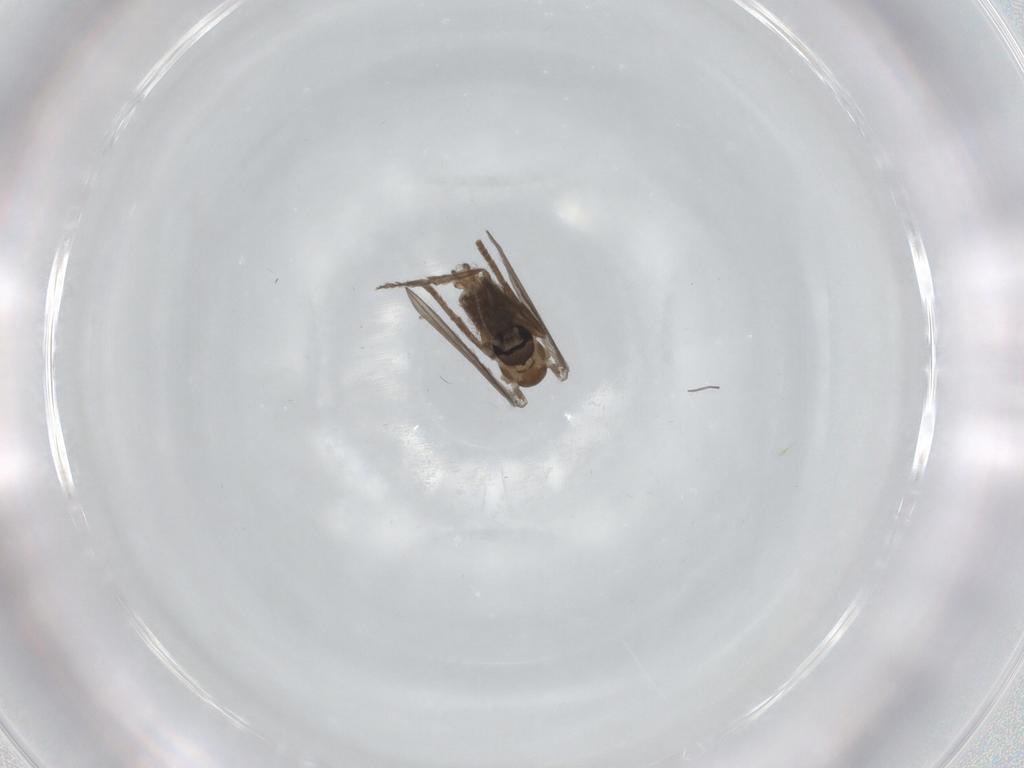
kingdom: Animalia
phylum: Arthropoda
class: Insecta
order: Diptera
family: Psychodidae
